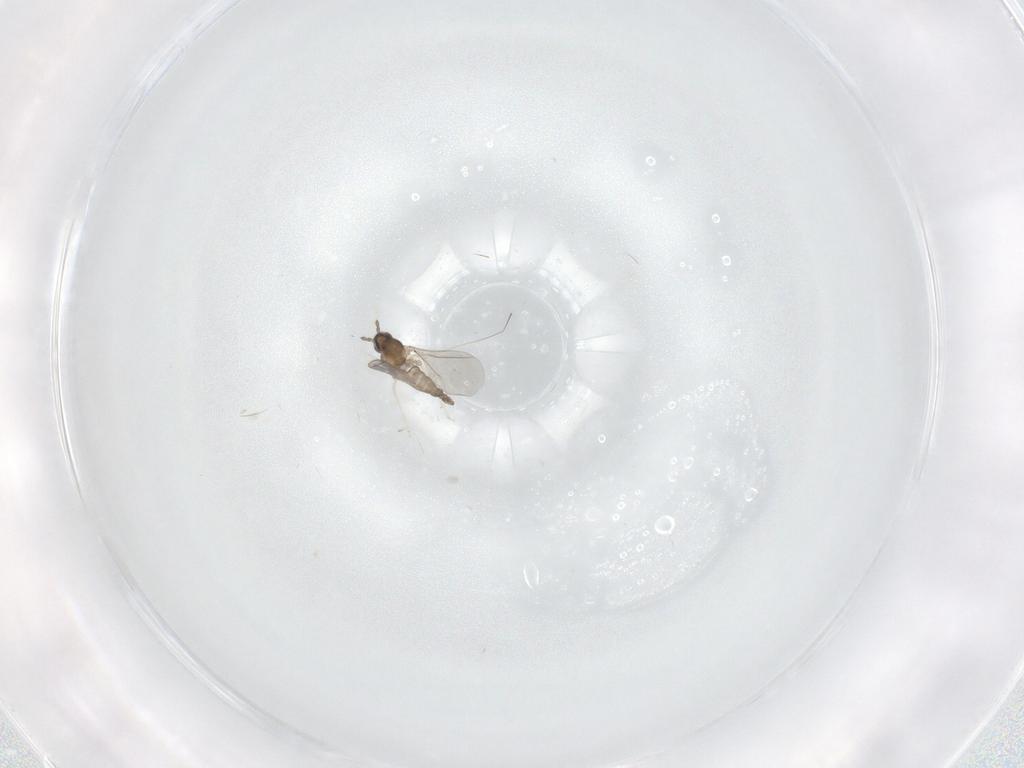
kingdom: Animalia
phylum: Arthropoda
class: Insecta
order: Diptera
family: Cecidomyiidae
